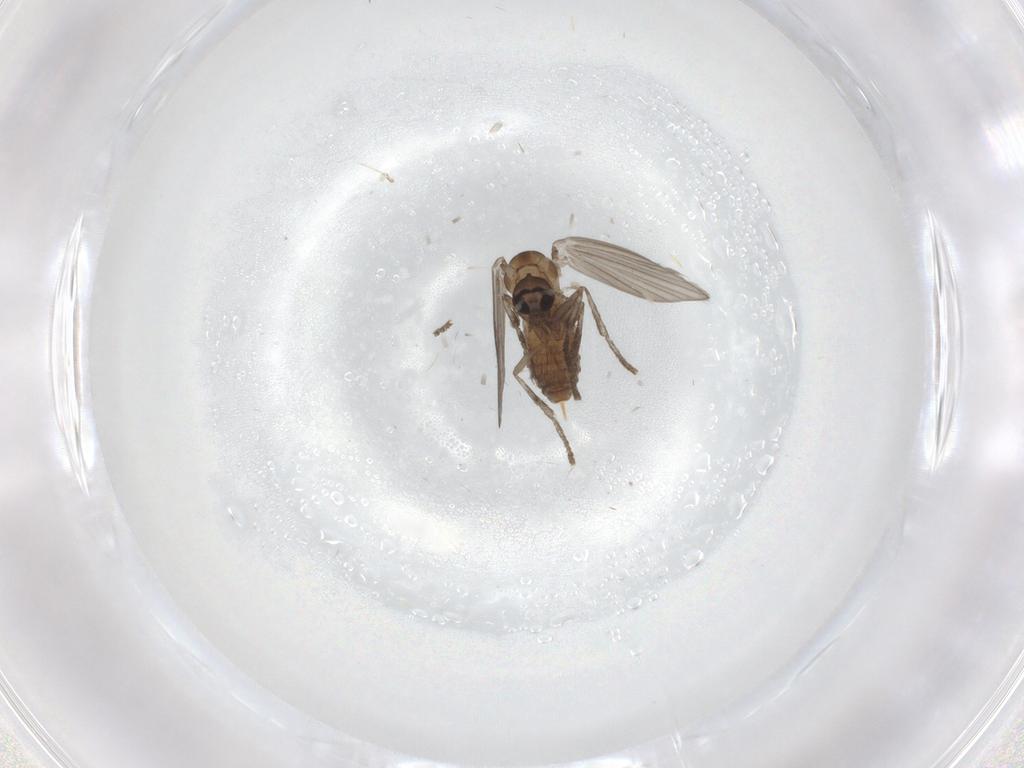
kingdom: Animalia
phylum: Arthropoda
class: Insecta
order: Diptera
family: Psychodidae
